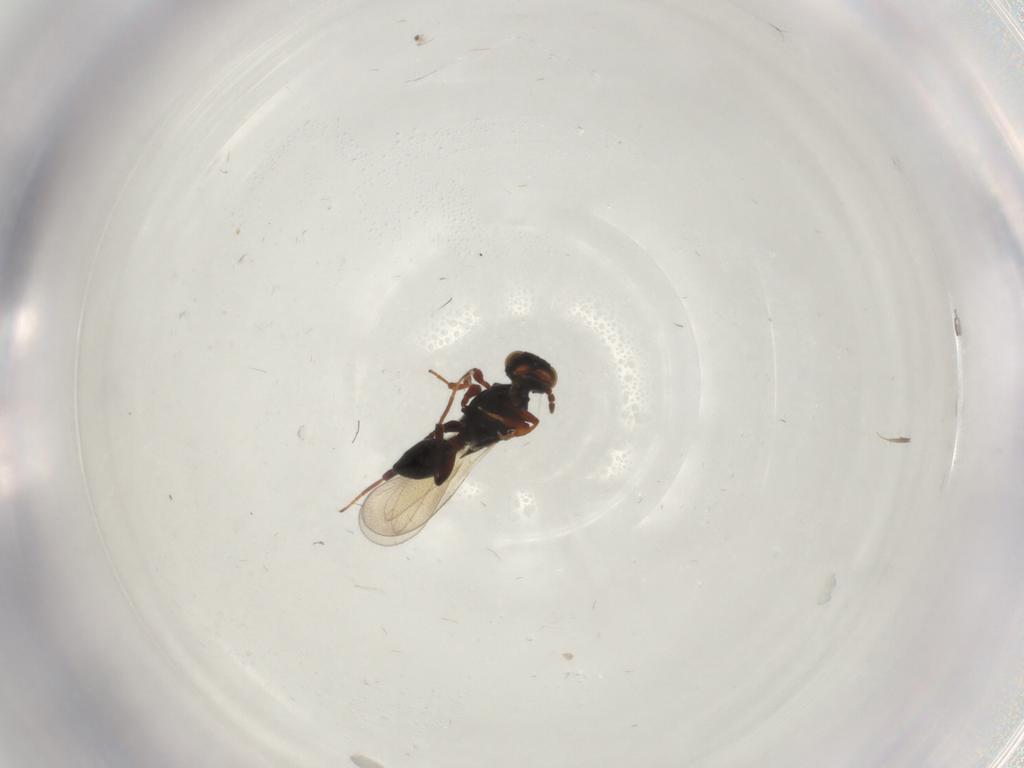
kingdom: Animalia
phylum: Arthropoda
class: Insecta
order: Hymenoptera
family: Platygastridae
